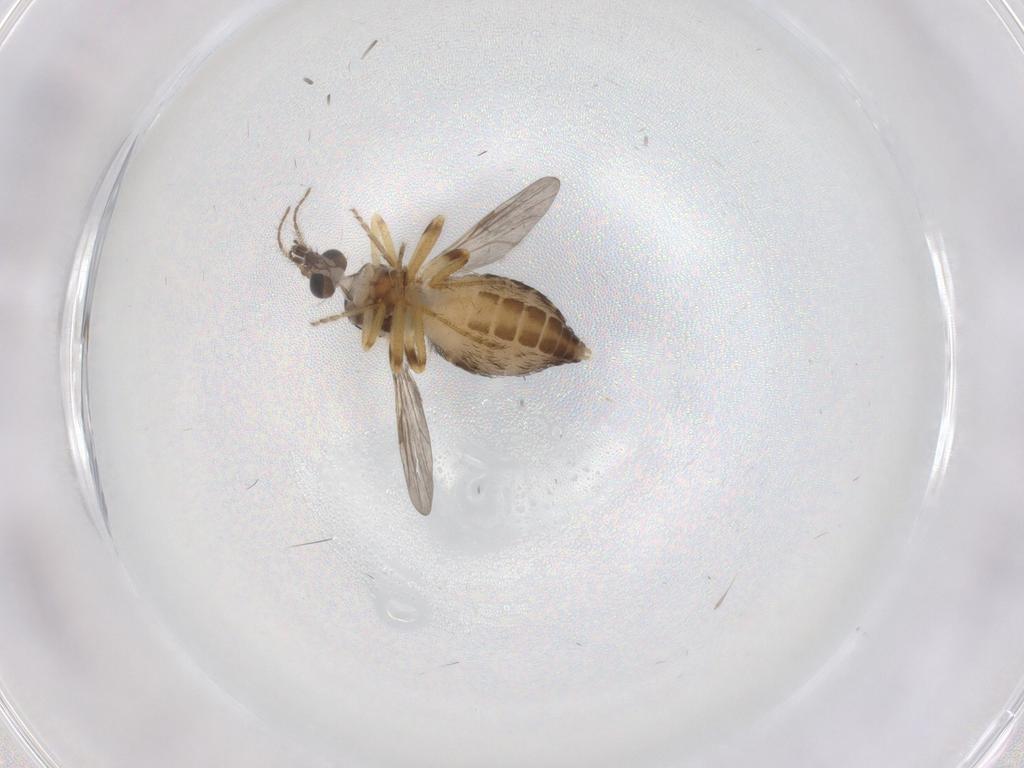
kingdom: Animalia
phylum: Arthropoda
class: Insecta
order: Diptera
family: Ceratopogonidae
